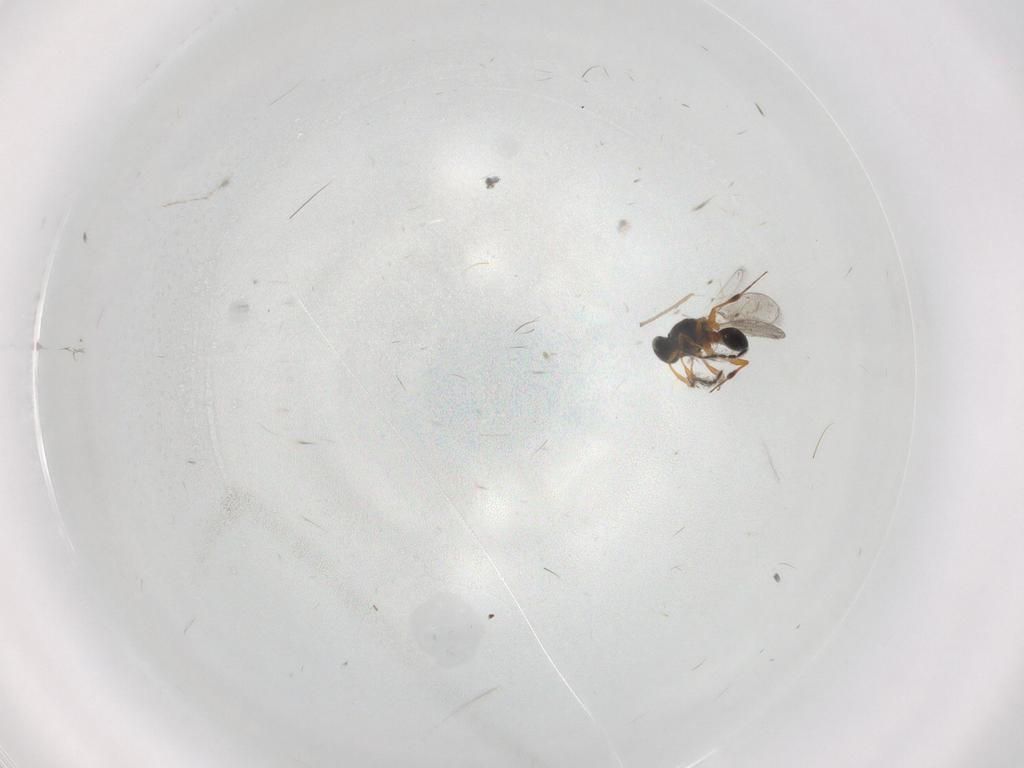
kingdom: Animalia
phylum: Arthropoda
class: Insecta
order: Hymenoptera
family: Platygastridae
